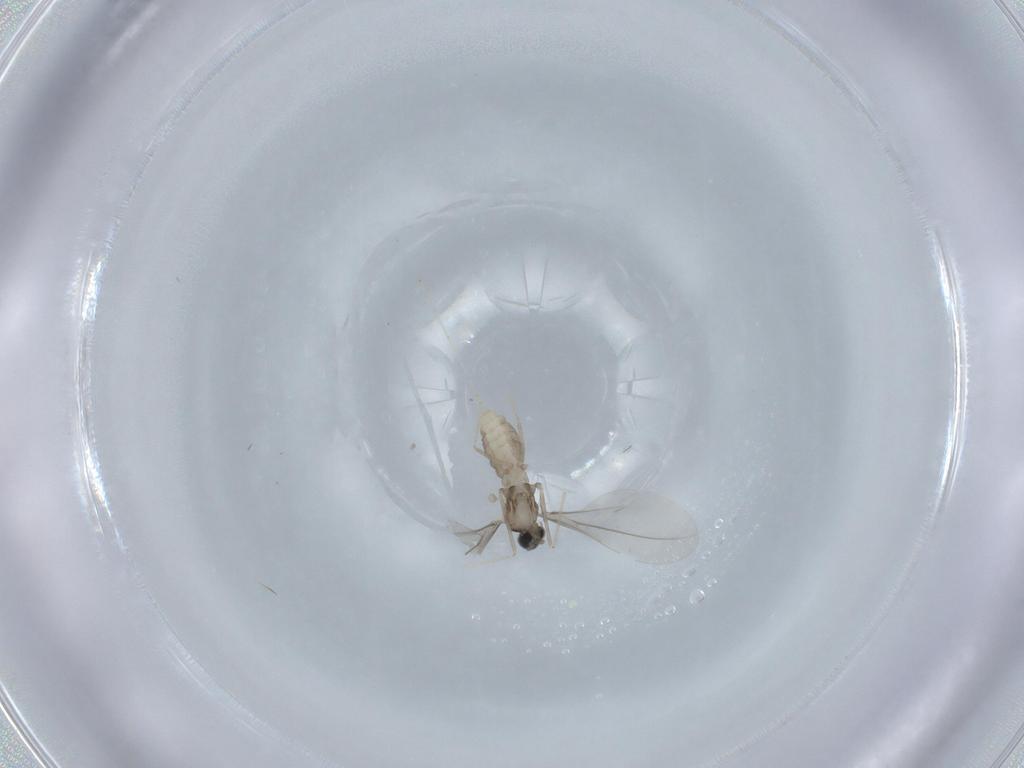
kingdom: Animalia
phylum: Arthropoda
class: Insecta
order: Diptera
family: Cecidomyiidae
